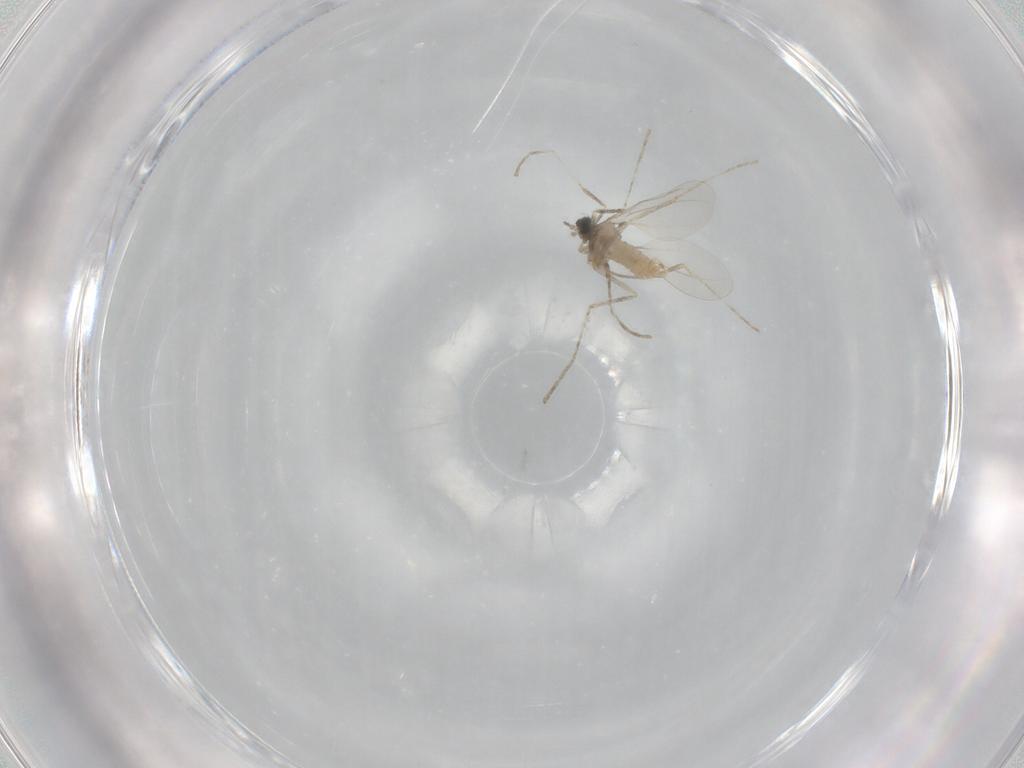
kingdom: Animalia
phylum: Arthropoda
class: Insecta
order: Diptera
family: Cecidomyiidae
